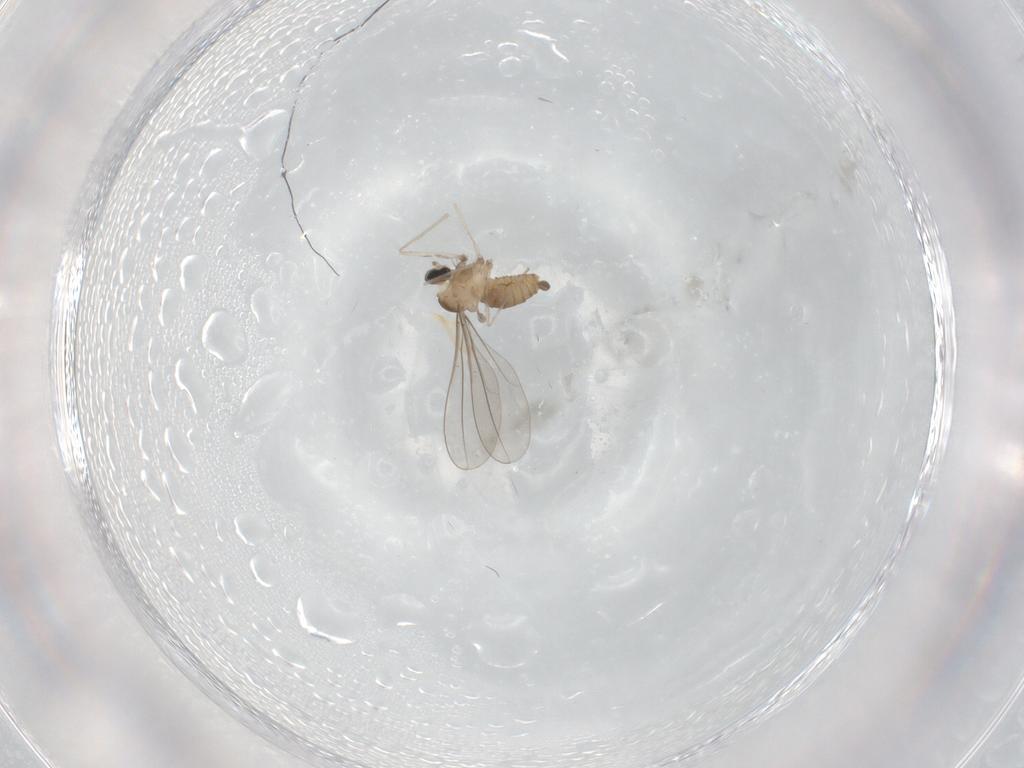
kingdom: Animalia
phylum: Arthropoda
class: Insecta
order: Diptera
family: Cecidomyiidae
